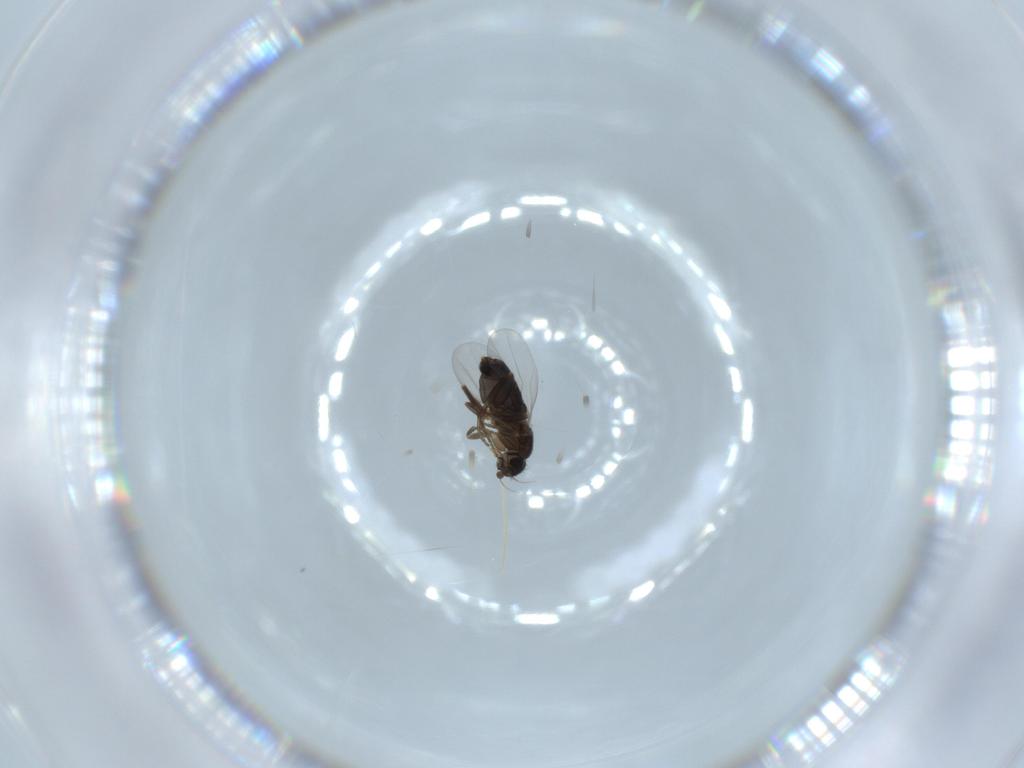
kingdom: Animalia
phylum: Arthropoda
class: Insecta
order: Diptera
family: Phoridae
